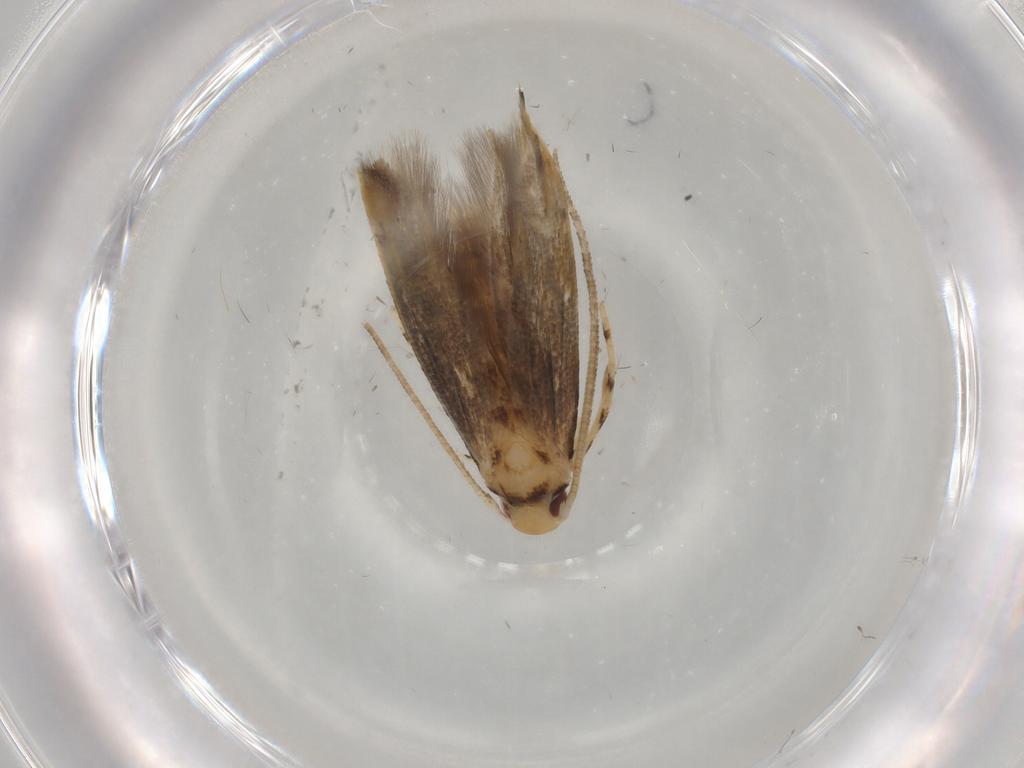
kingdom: Animalia
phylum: Arthropoda
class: Insecta
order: Lepidoptera
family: Momphidae
